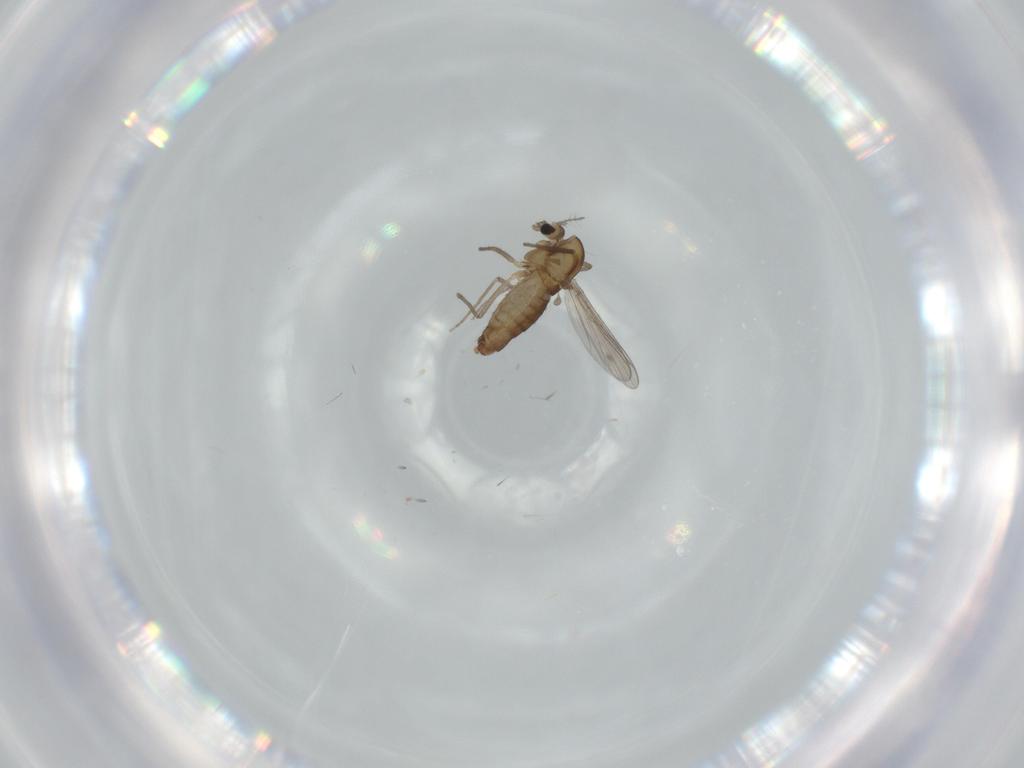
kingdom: Animalia
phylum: Arthropoda
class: Insecta
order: Diptera
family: Chironomidae
